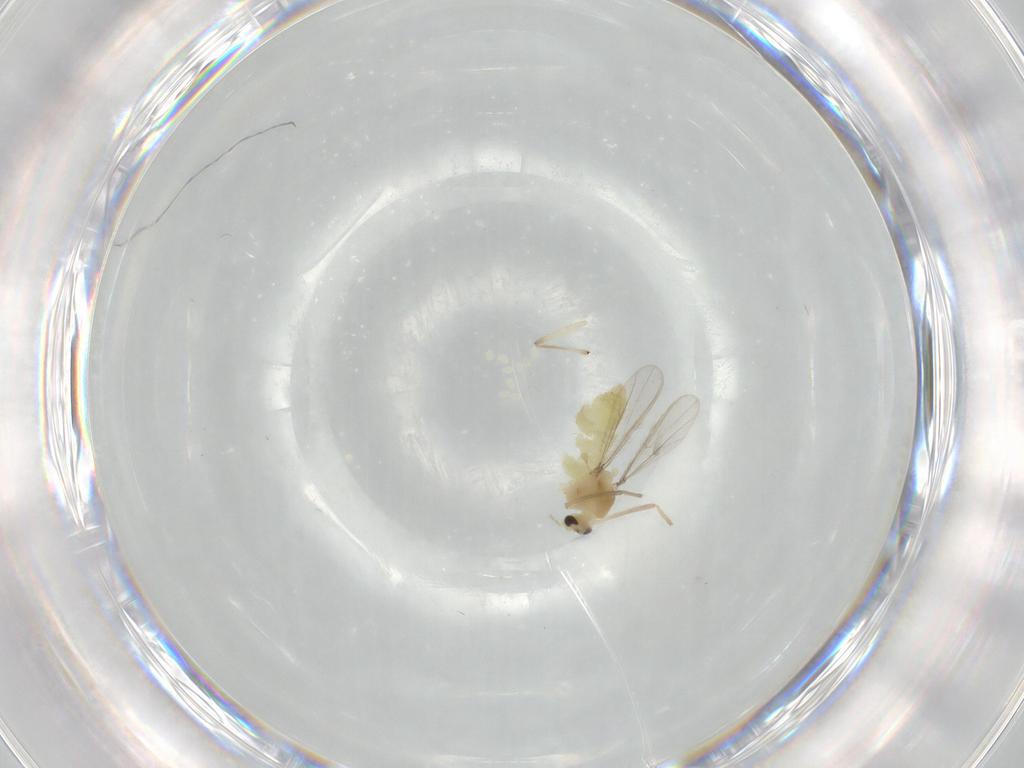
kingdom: Animalia
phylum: Arthropoda
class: Insecta
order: Diptera
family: Chironomidae
